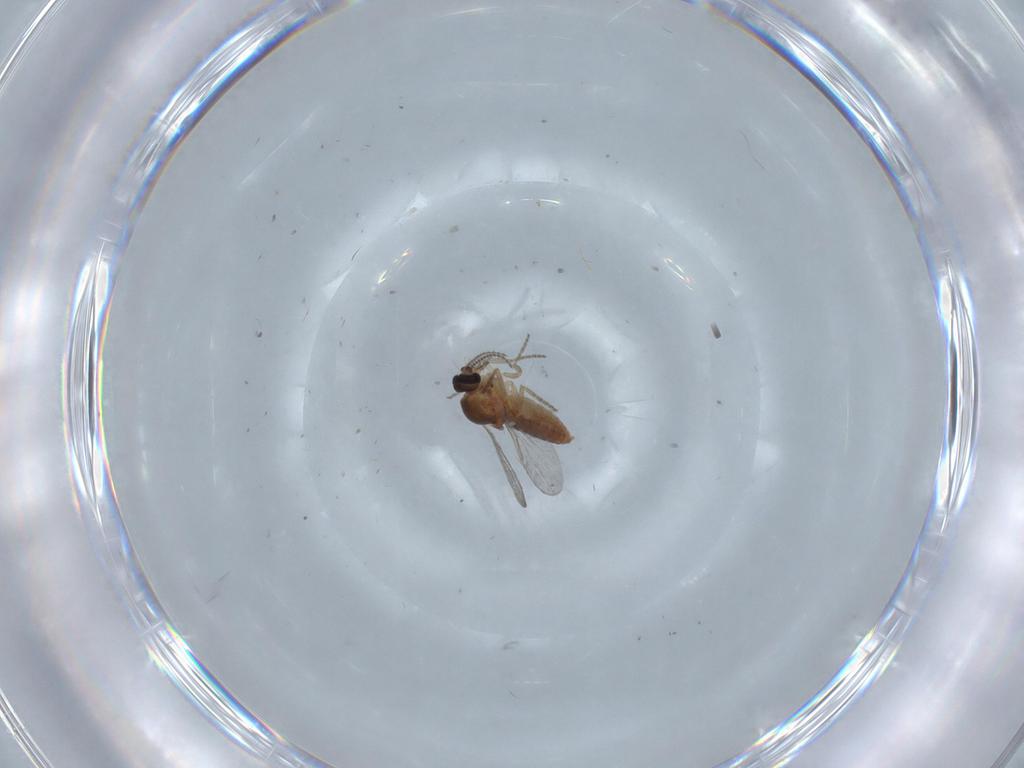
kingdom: Animalia
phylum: Arthropoda
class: Insecta
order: Diptera
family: Ceratopogonidae
